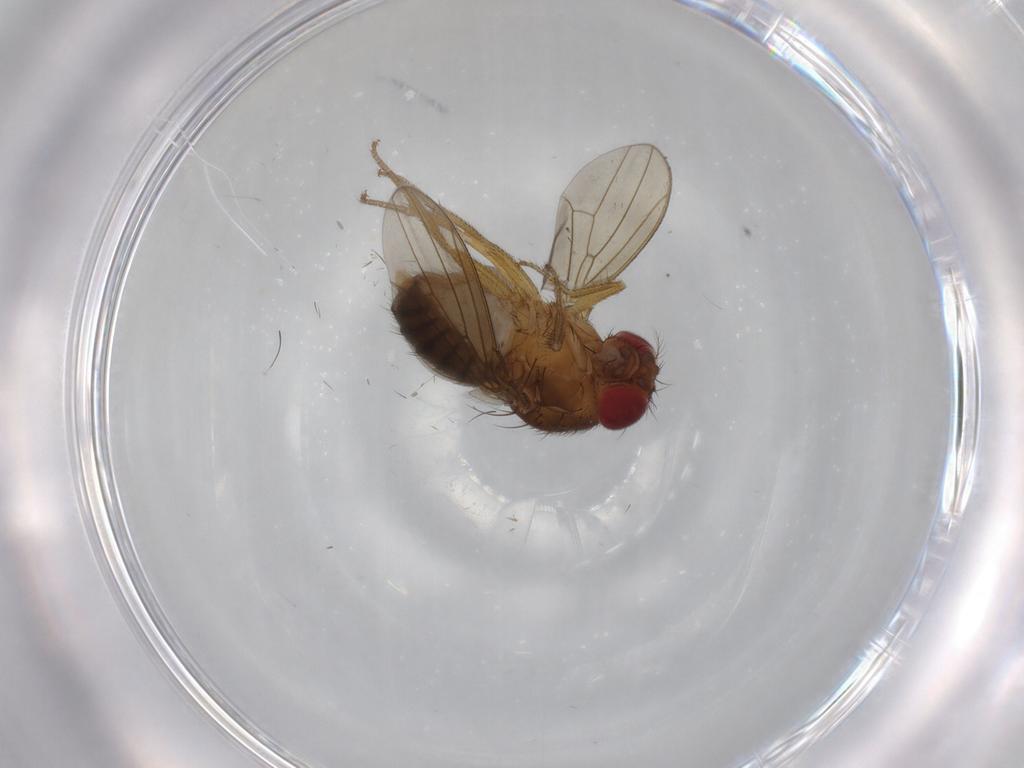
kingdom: Animalia
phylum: Arthropoda
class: Insecta
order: Diptera
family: Drosophilidae
